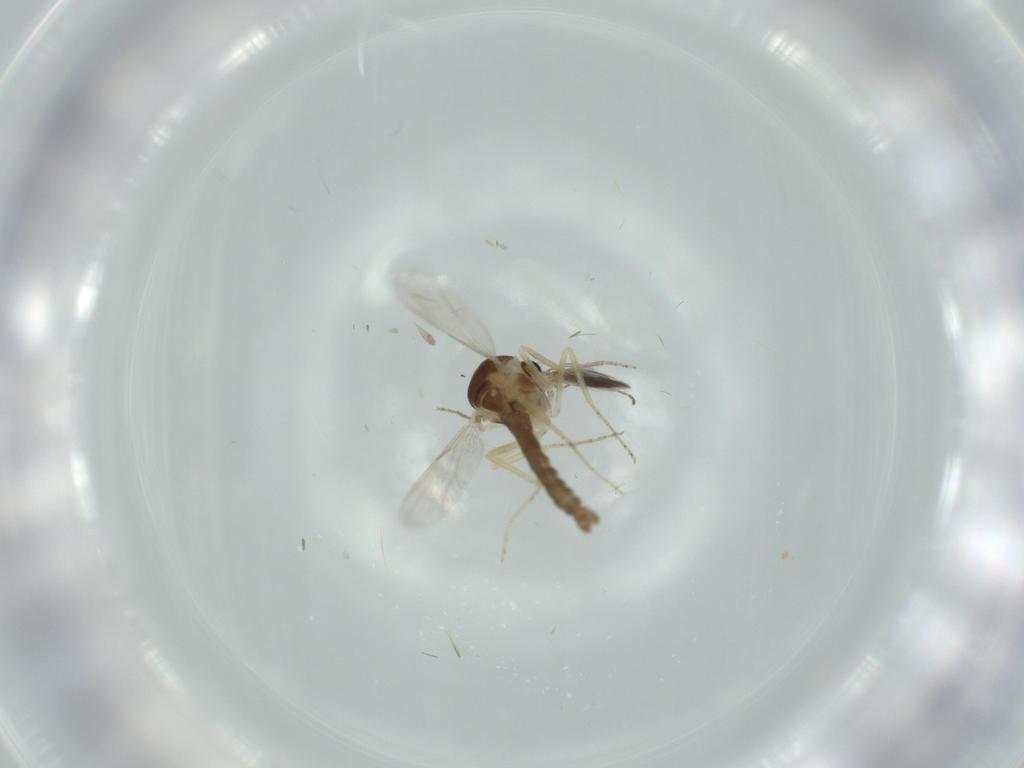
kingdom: Animalia
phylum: Arthropoda
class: Insecta
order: Diptera
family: Ceratopogonidae
